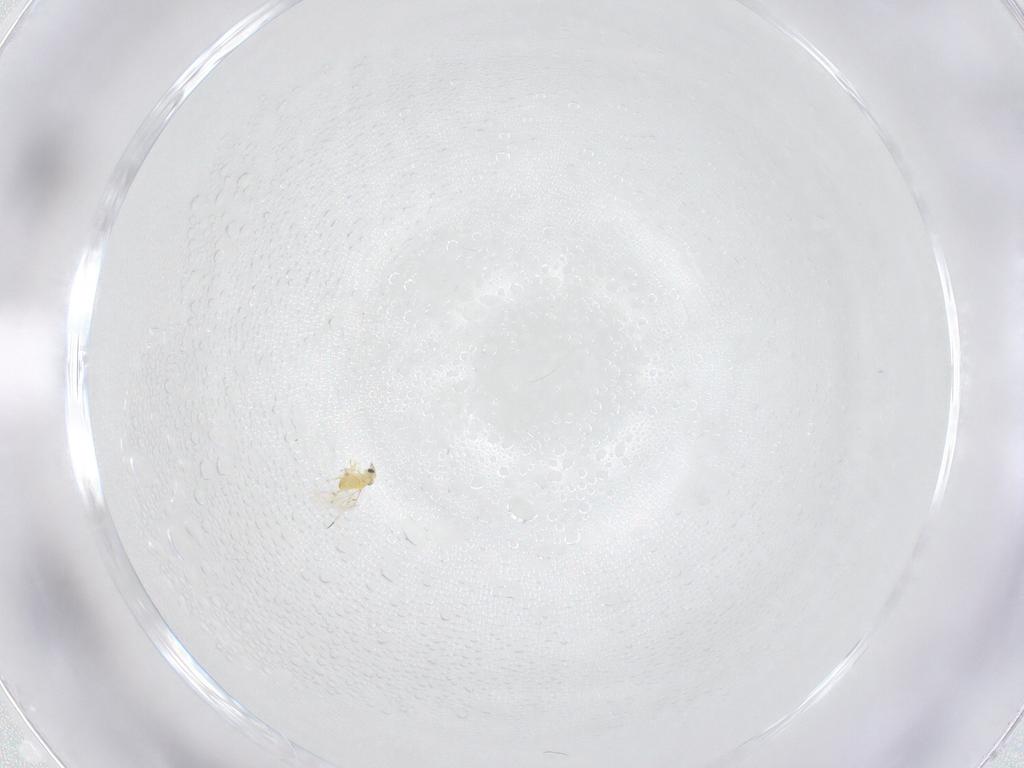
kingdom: Animalia
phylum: Arthropoda
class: Insecta
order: Hymenoptera
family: Trichogrammatidae
